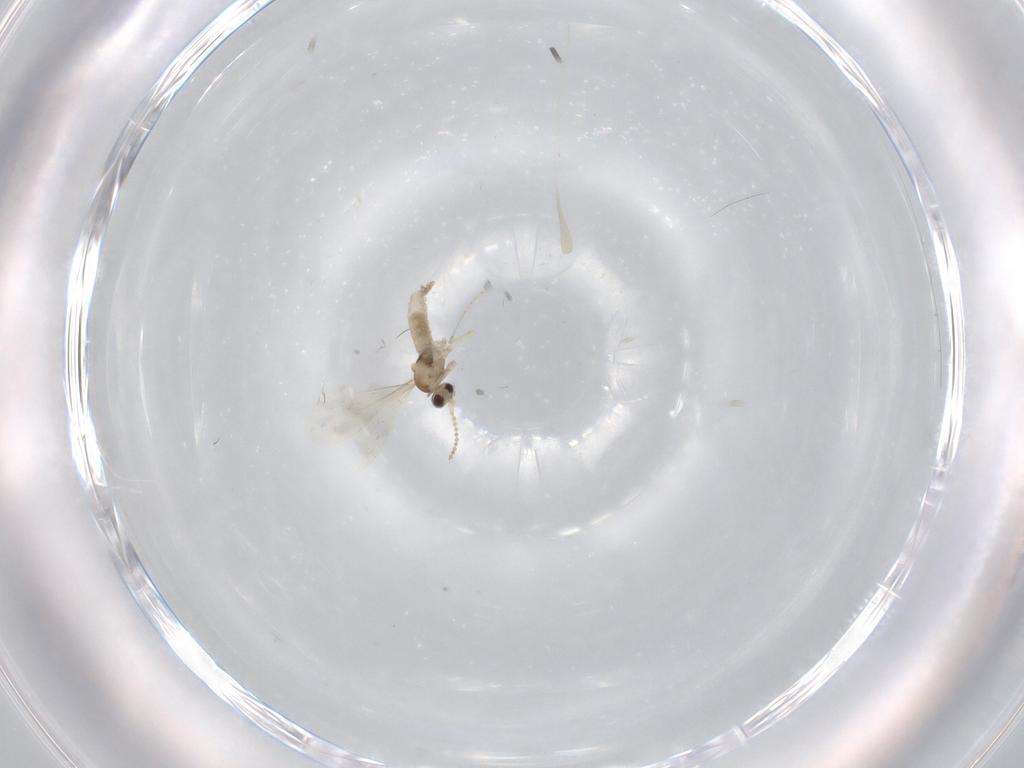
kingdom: Animalia
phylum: Arthropoda
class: Insecta
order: Diptera
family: Cecidomyiidae
